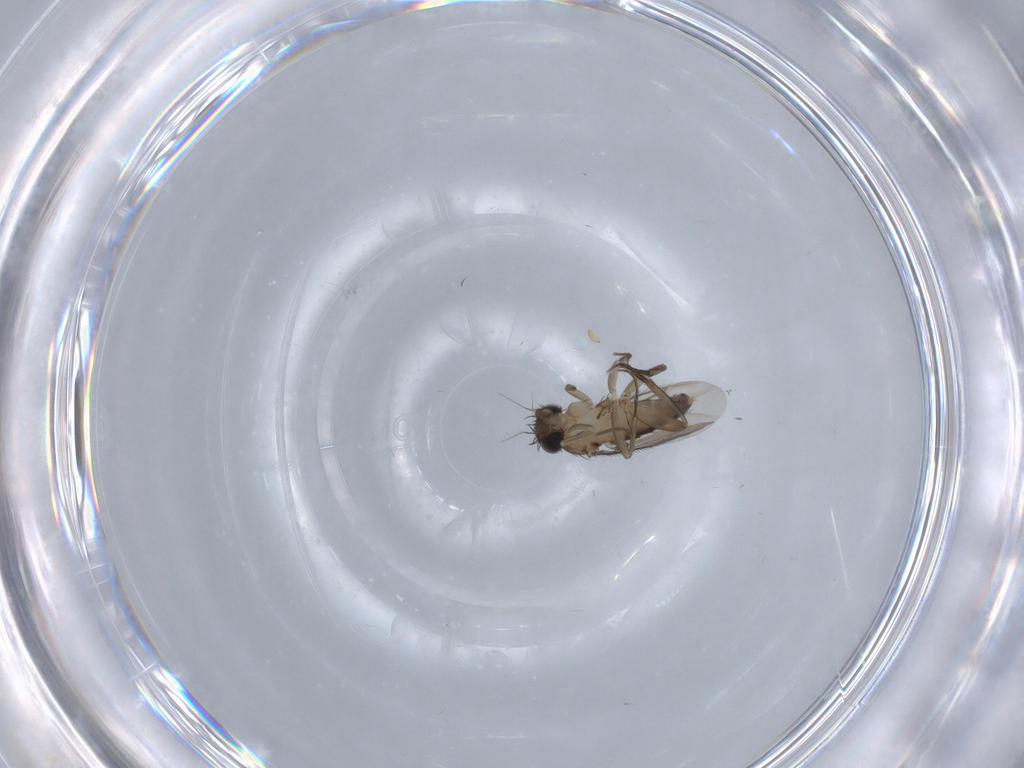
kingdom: Animalia
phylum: Arthropoda
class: Insecta
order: Diptera
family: Phoridae
